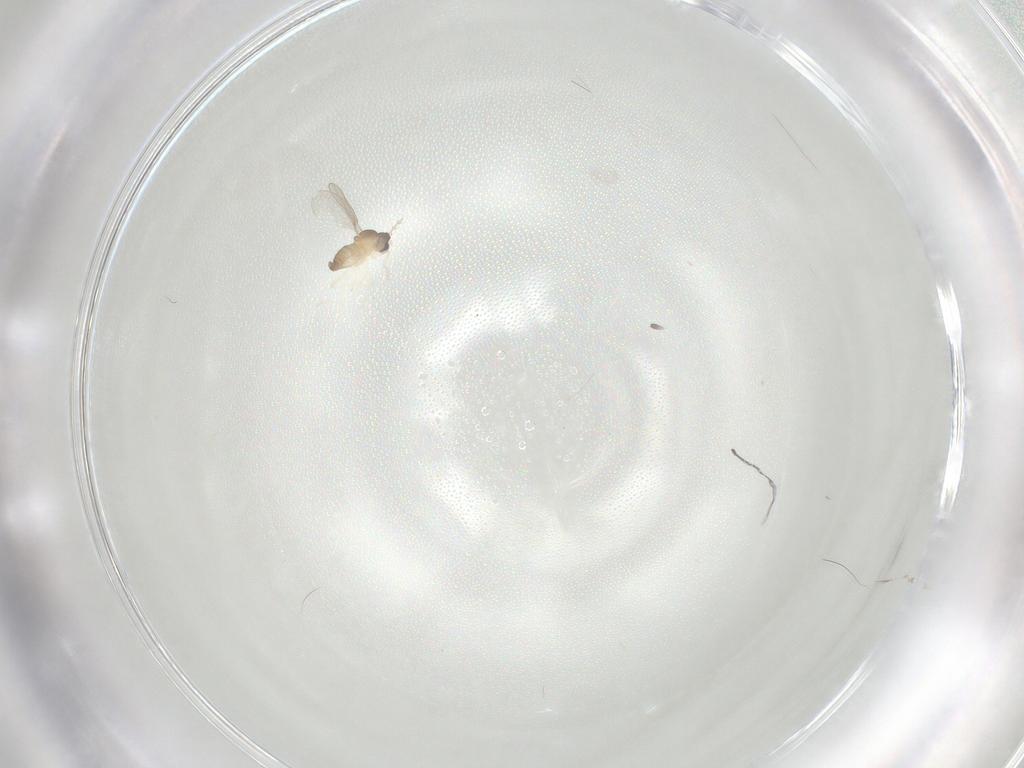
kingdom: Animalia
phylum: Arthropoda
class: Insecta
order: Diptera
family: Cecidomyiidae
